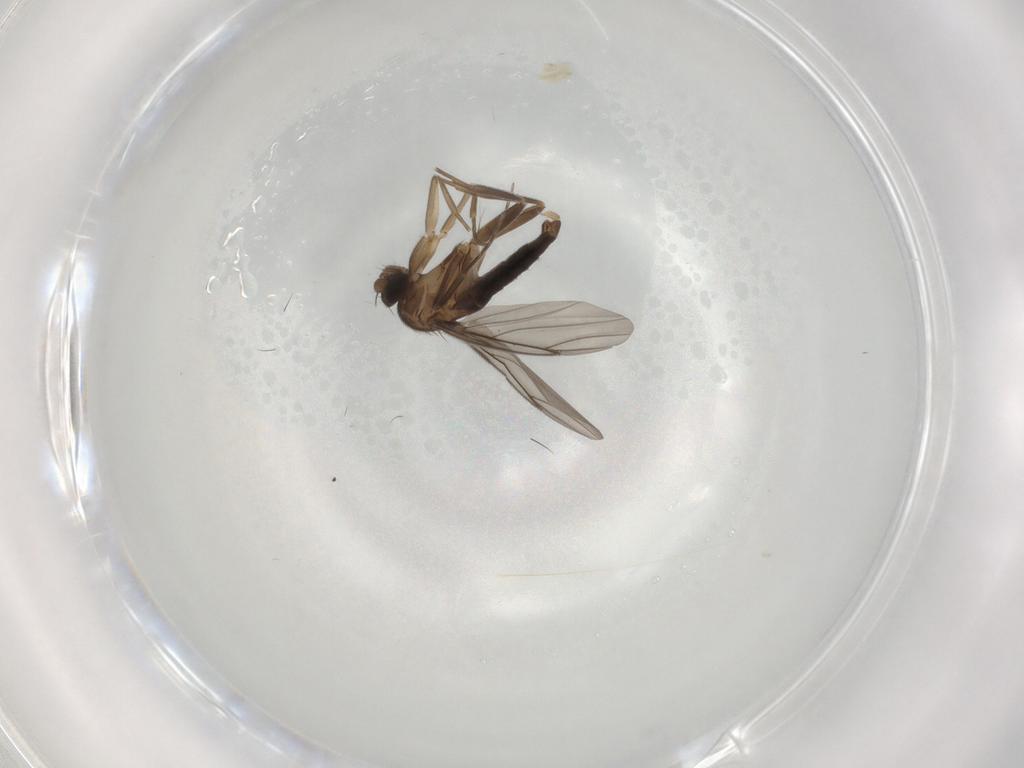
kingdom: Animalia
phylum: Arthropoda
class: Insecta
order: Diptera
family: Phoridae
